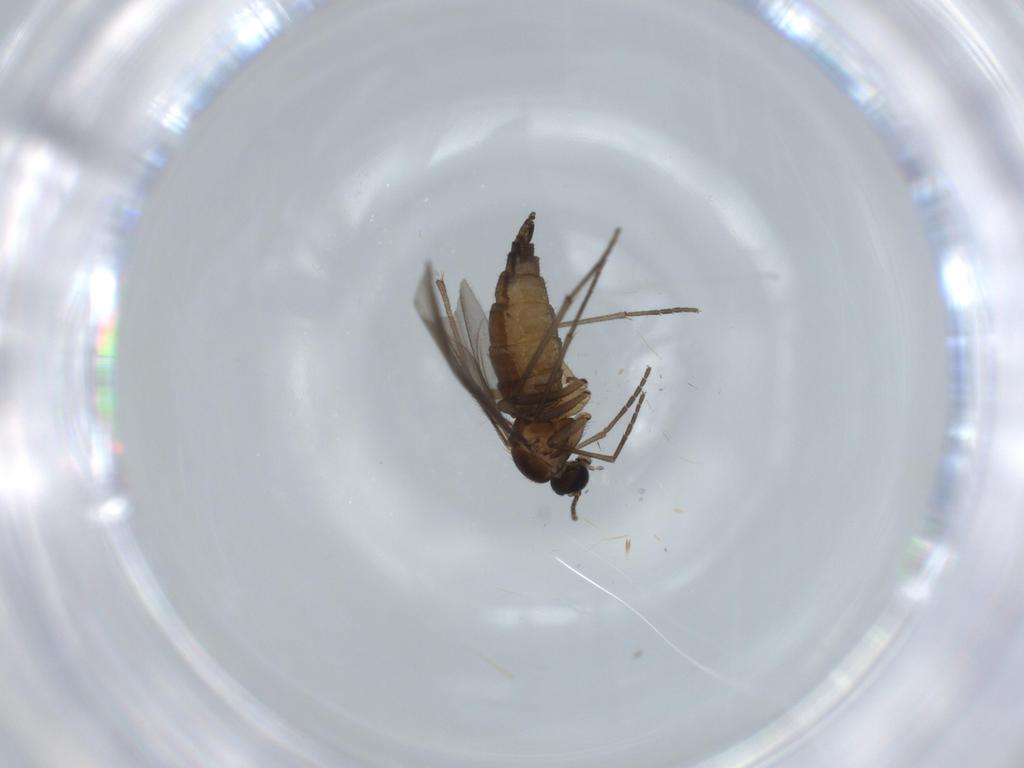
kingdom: Animalia
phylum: Arthropoda
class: Insecta
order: Diptera
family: Sciaridae
